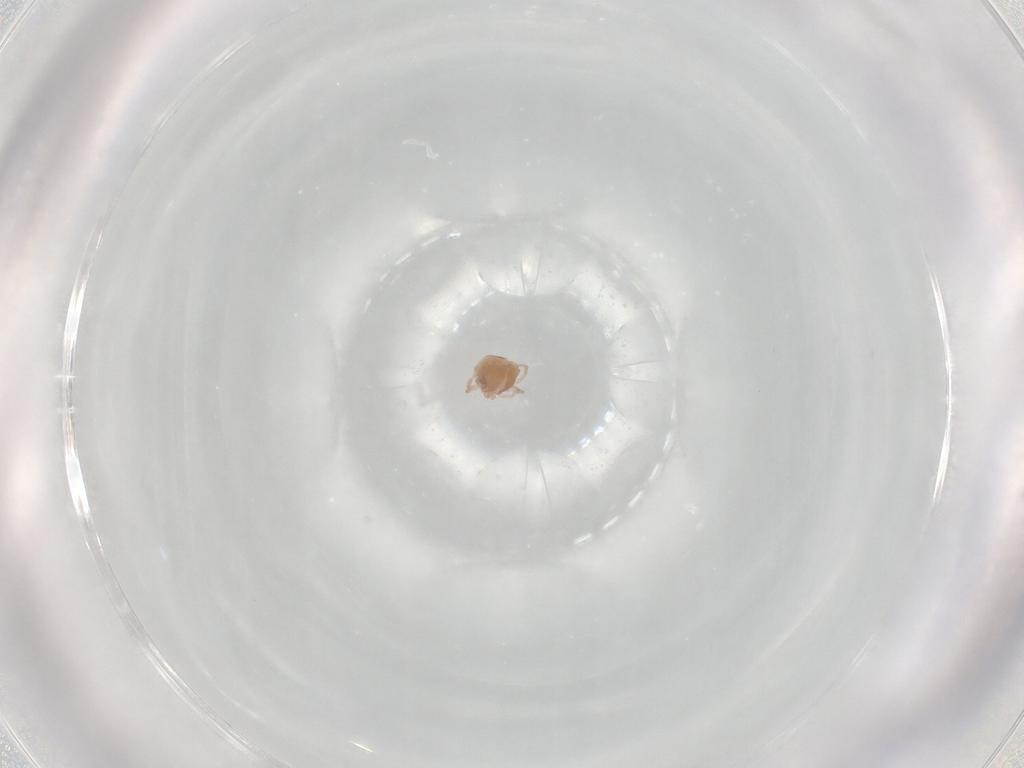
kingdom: Animalia
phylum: Arthropoda
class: Arachnida
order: Trombidiformes
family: Lebertiidae
